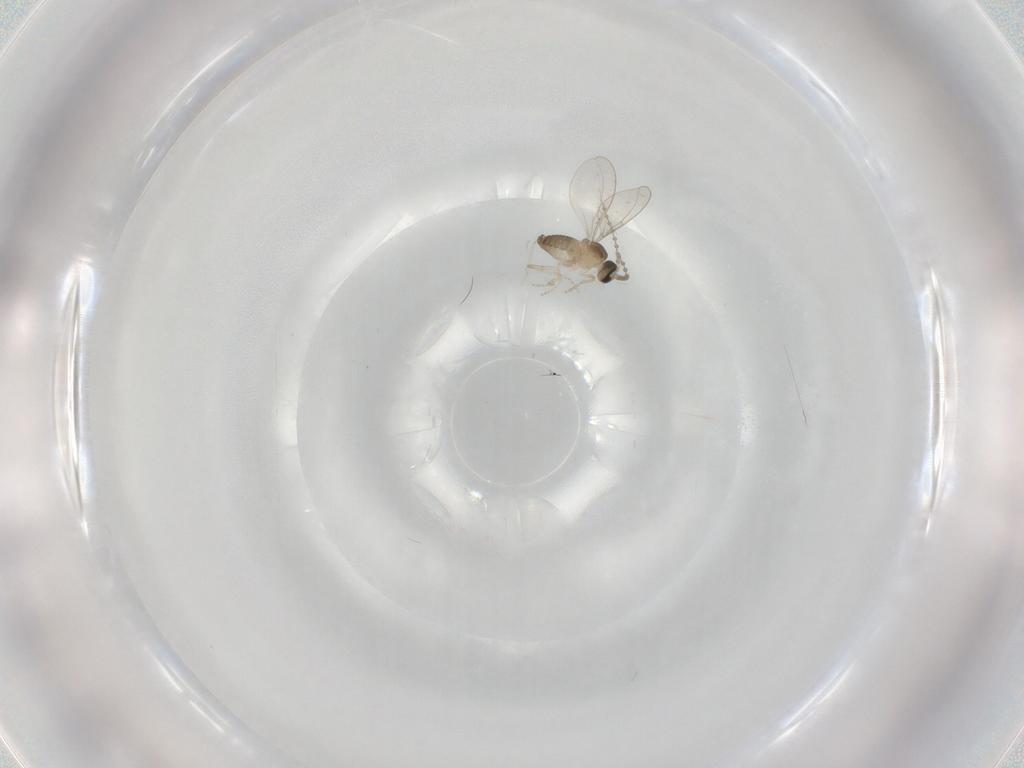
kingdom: Animalia
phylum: Arthropoda
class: Insecta
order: Diptera
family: Cecidomyiidae
